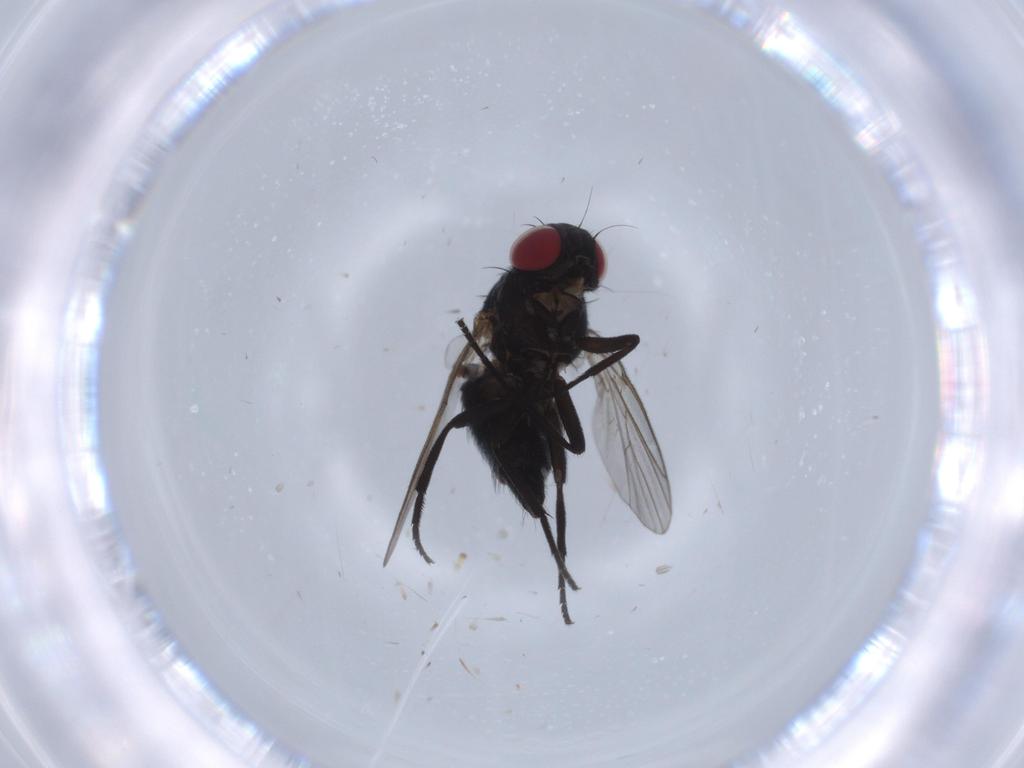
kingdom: Animalia
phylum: Arthropoda
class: Insecta
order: Diptera
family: Agromyzidae
